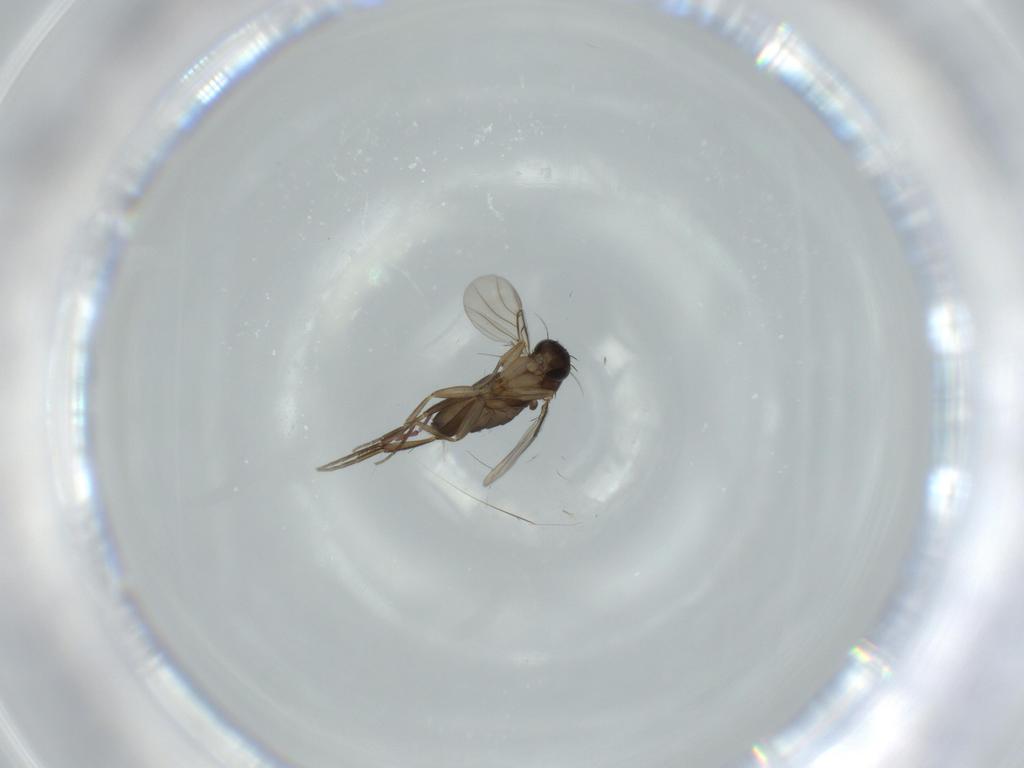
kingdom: Animalia
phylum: Arthropoda
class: Insecta
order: Diptera
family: Phoridae
